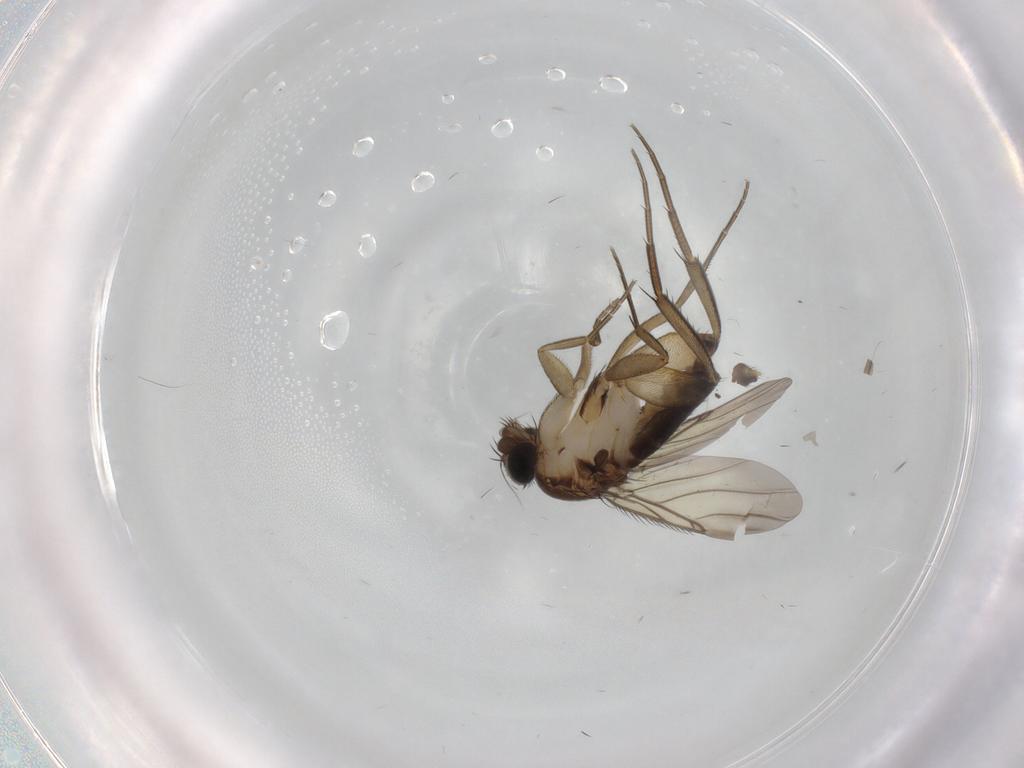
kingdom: Animalia
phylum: Arthropoda
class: Insecta
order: Diptera
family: Phoridae
